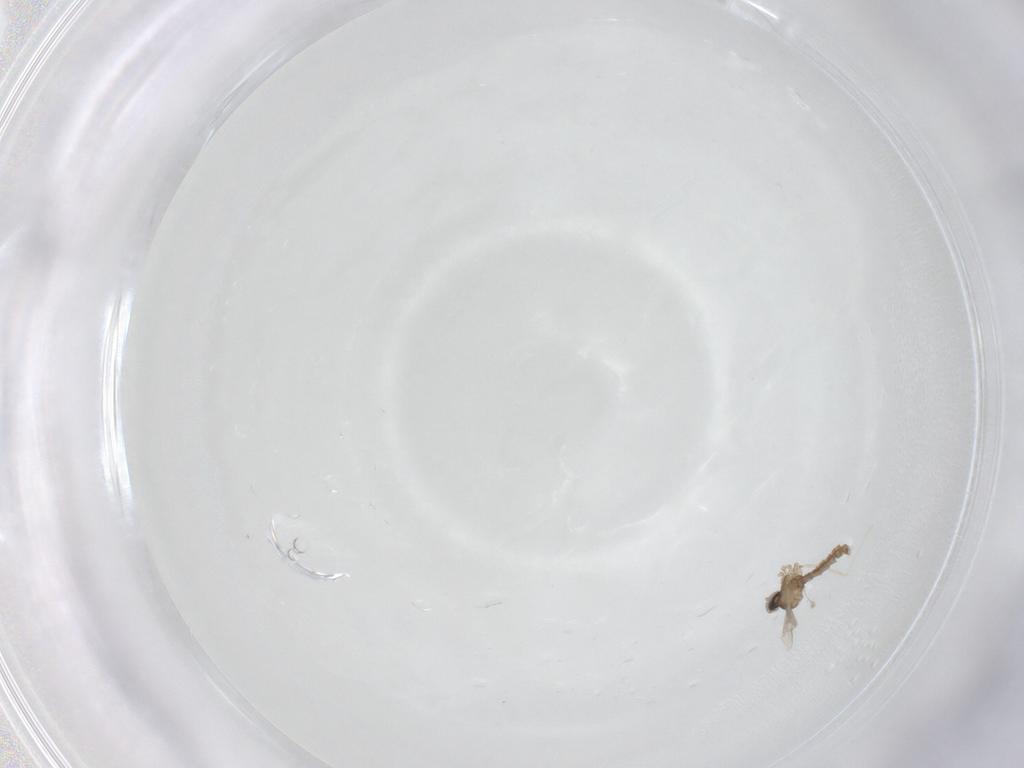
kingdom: Animalia
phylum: Arthropoda
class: Insecta
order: Diptera
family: Cecidomyiidae
